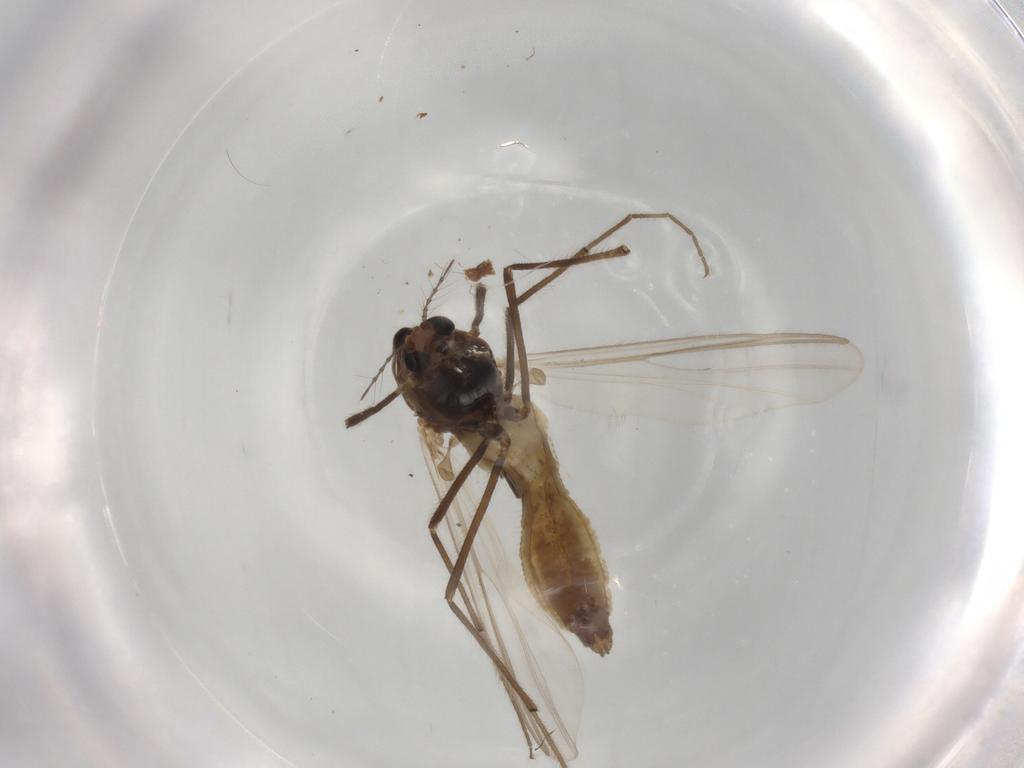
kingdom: Animalia
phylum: Arthropoda
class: Insecta
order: Diptera
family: Chironomidae
